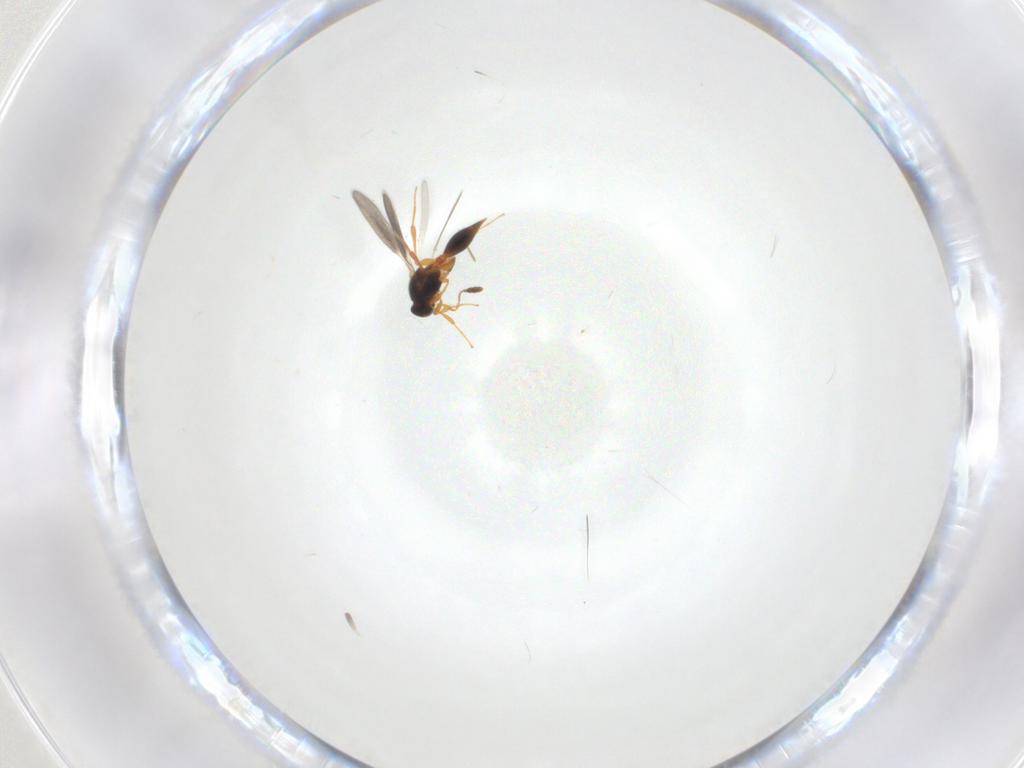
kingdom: Animalia
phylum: Arthropoda
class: Insecta
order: Hymenoptera
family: Platygastridae
